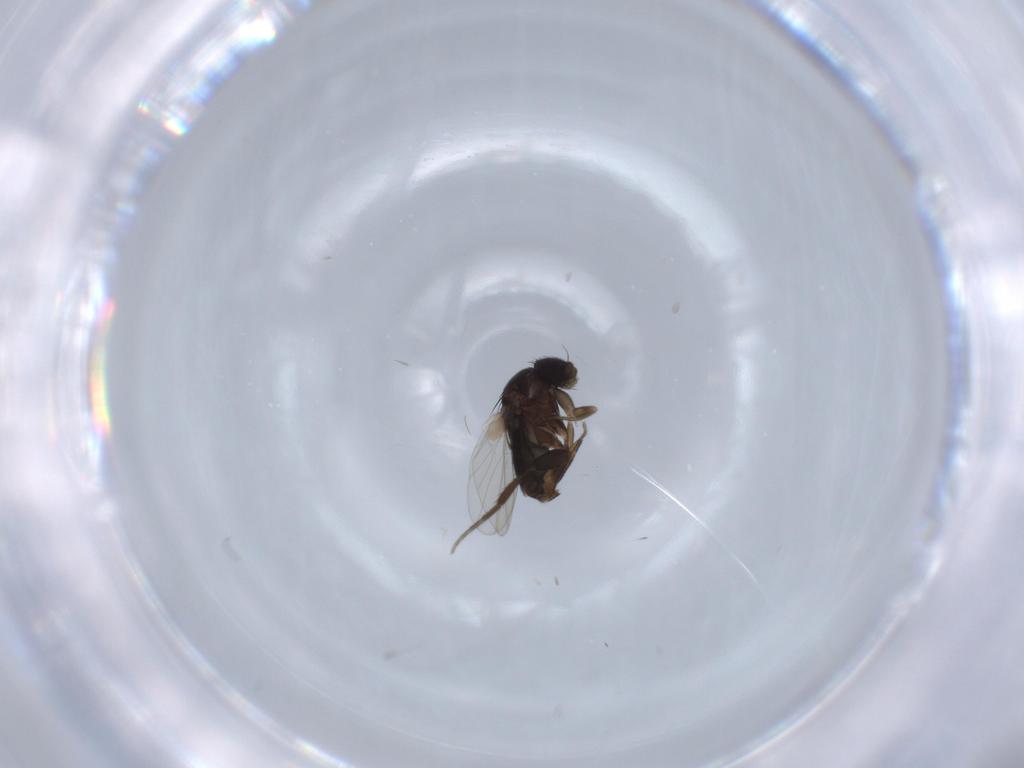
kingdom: Animalia
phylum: Arthropoda
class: Insecta
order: Diptera
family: Phoridae
